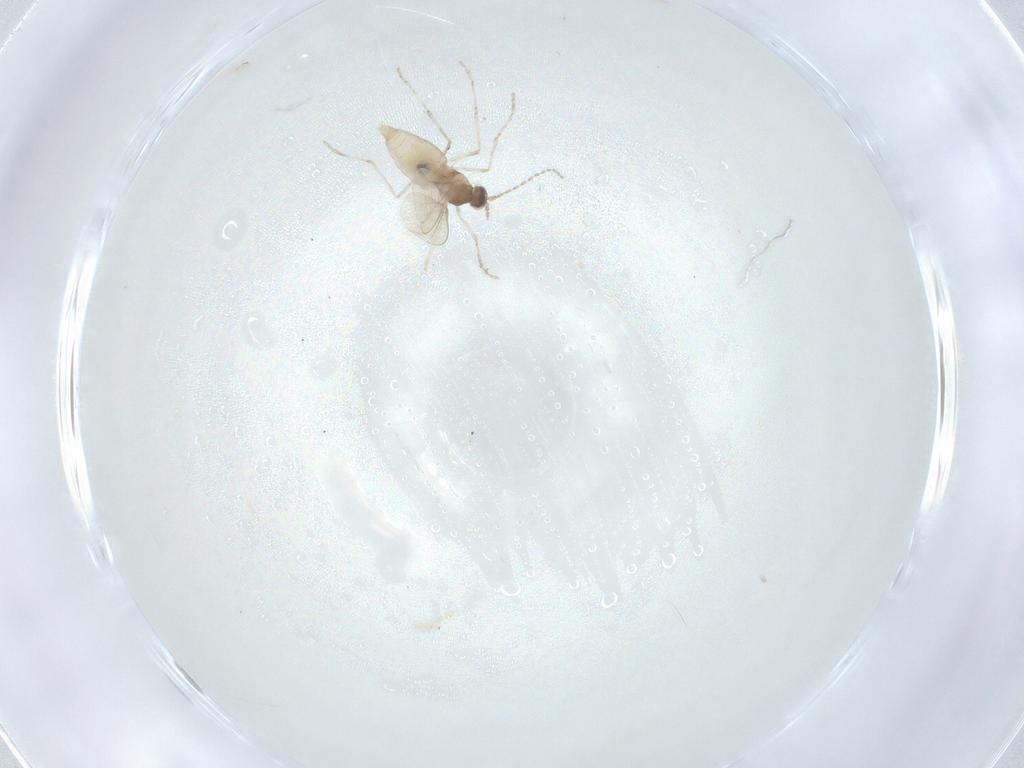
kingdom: Animalia
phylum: Arthropoda
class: Insecta
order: Diptera
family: Cecidomyiidae
